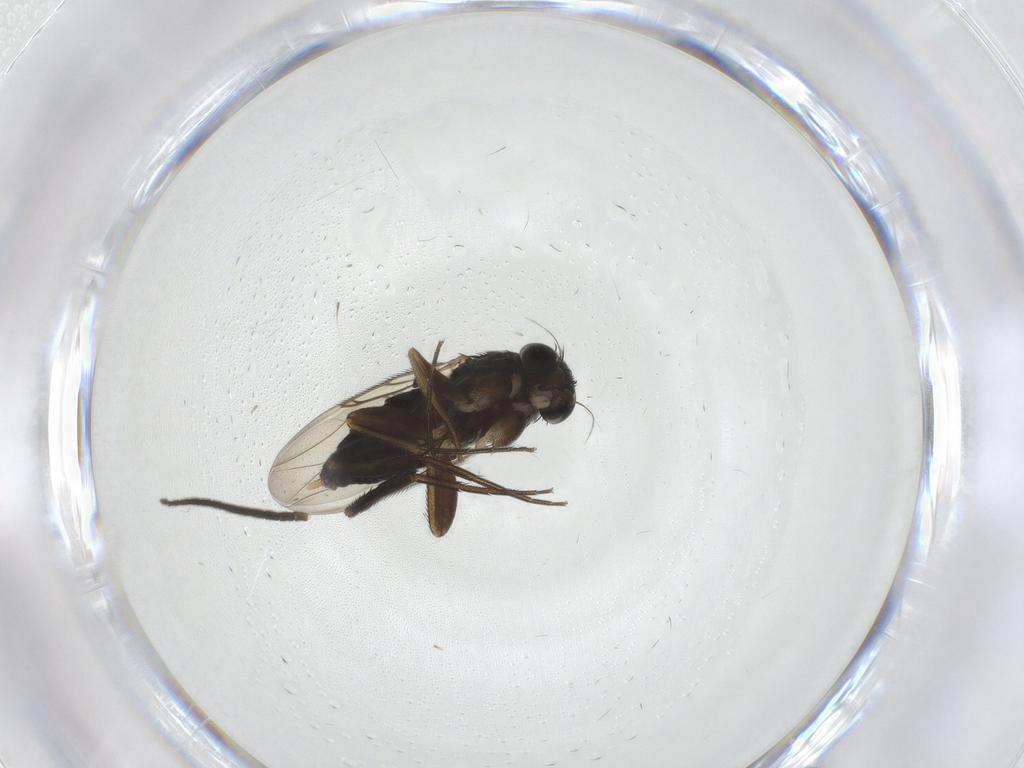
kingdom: Animalia
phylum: Arthropoda
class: Insecta
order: Diptera
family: Phoridae
